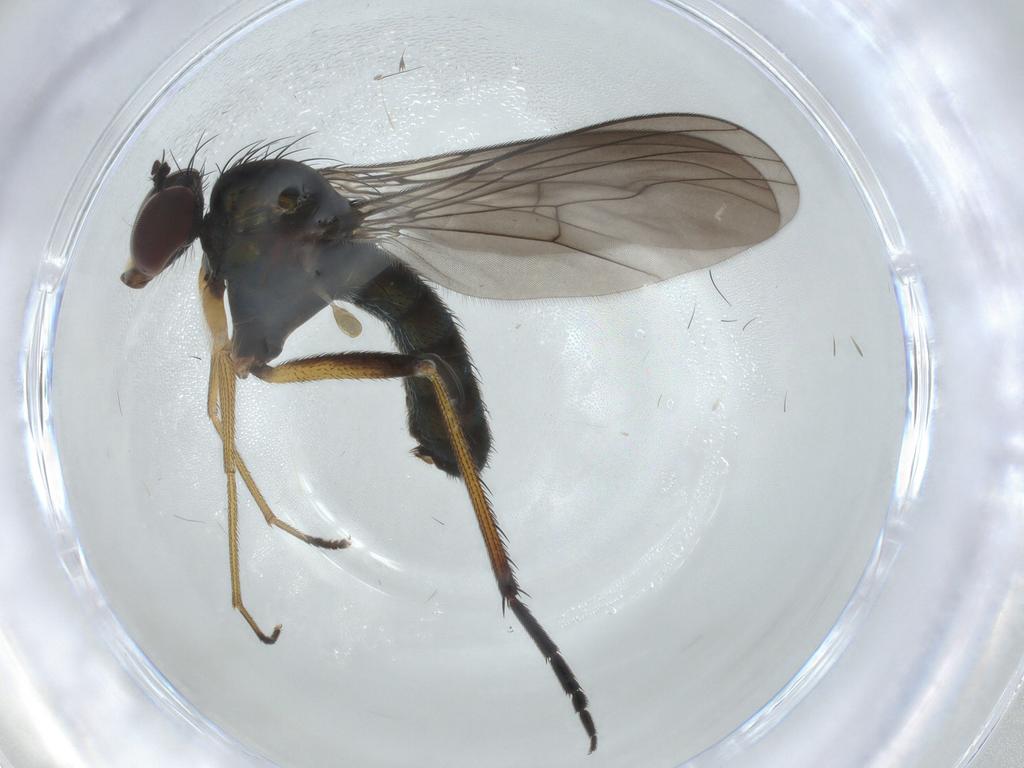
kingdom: Animalia
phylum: Arthropoda
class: Insecta
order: Diptera
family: Dolichopodidae
